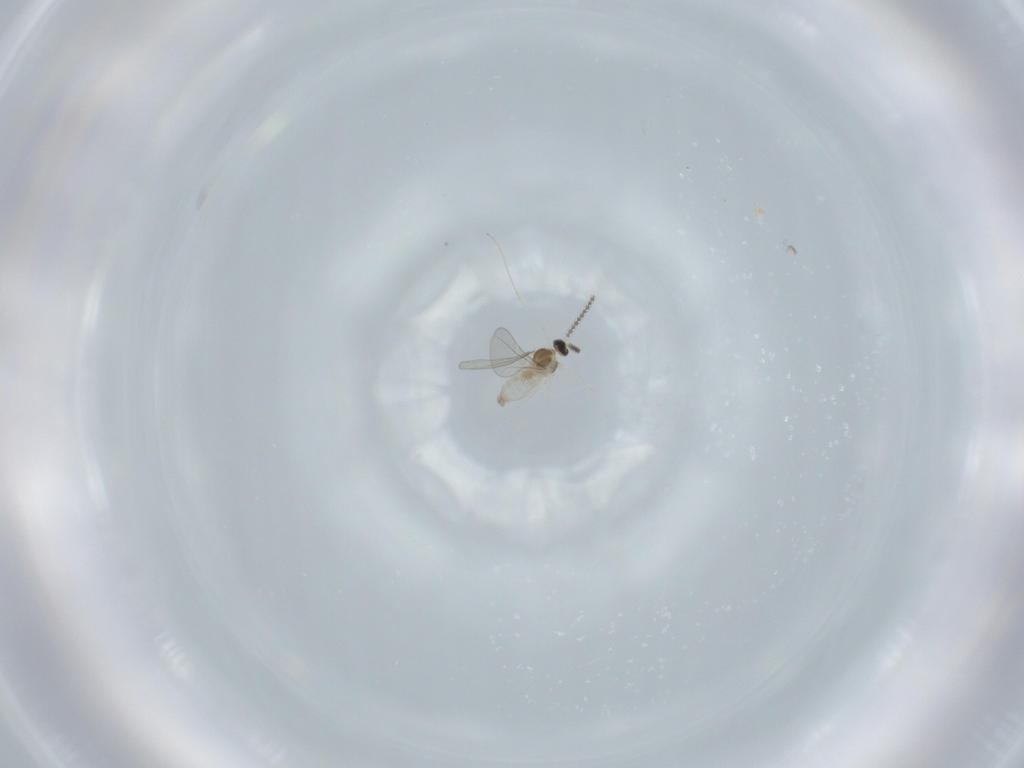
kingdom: Animalia
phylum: Arthropoda
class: Insecta
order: Diptera
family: Cecidomyiidae
